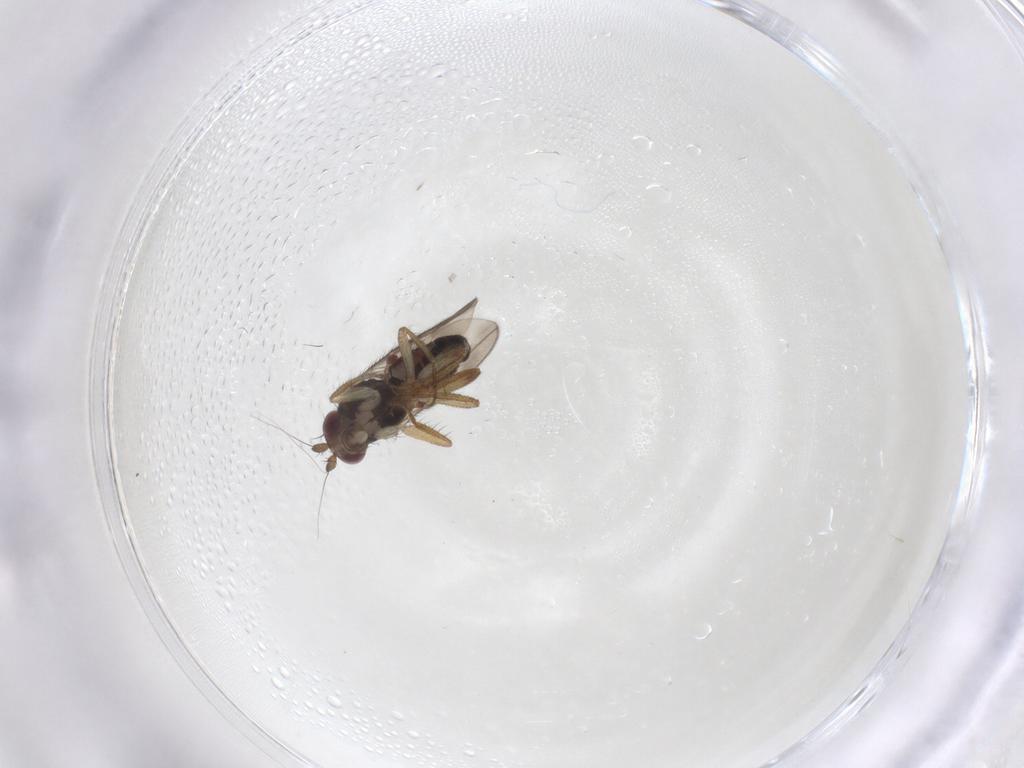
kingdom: Animalia
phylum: Arthropoda
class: Insecta
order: Diptera
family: Sphaeroceridae
